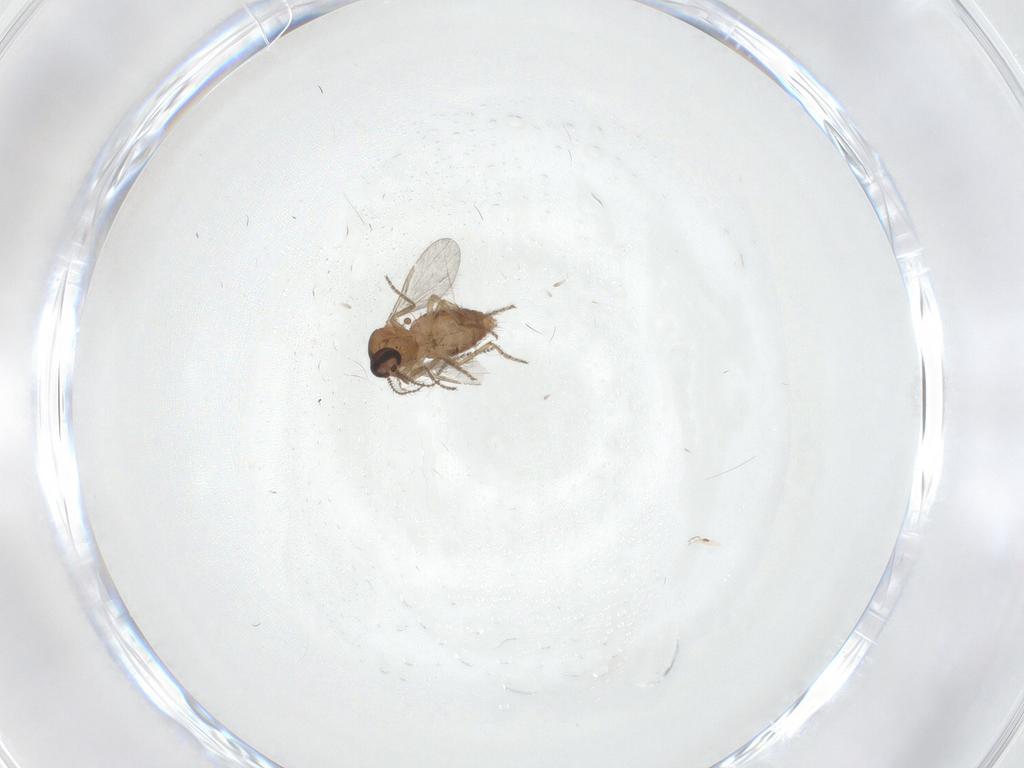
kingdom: Animalia
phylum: Arthropoda
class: Insecta
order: Diptera
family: Ceratopogonidae
